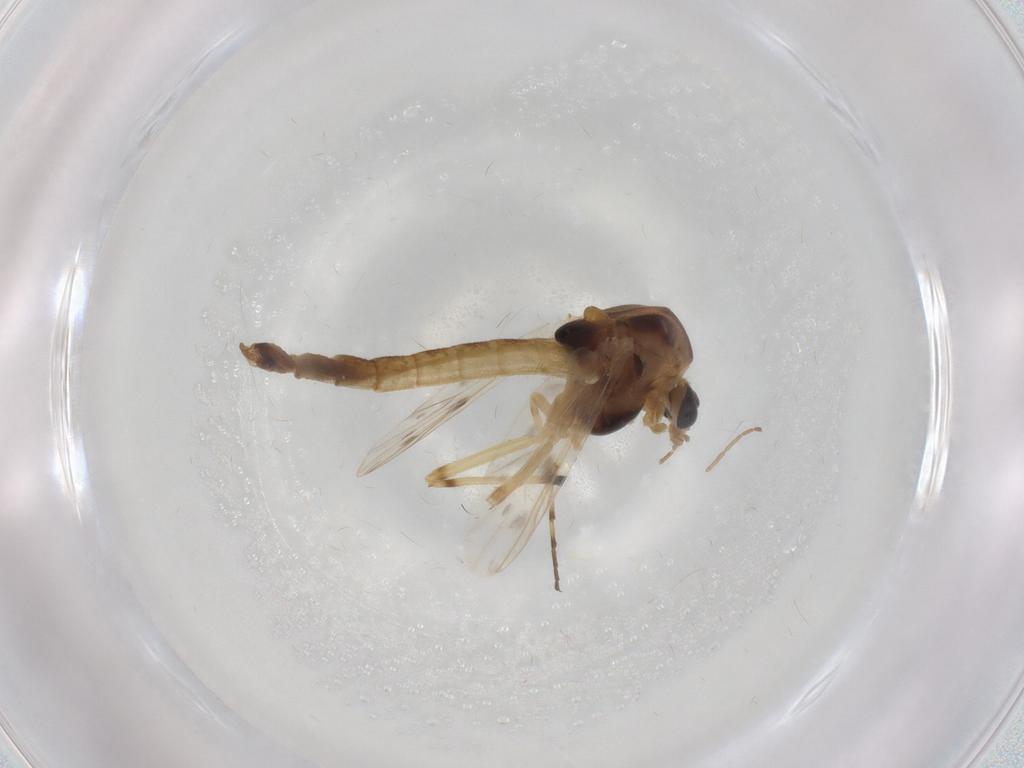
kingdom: Animalia
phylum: Arthropoda
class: Insecta
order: Diptera
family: Chironomidae
